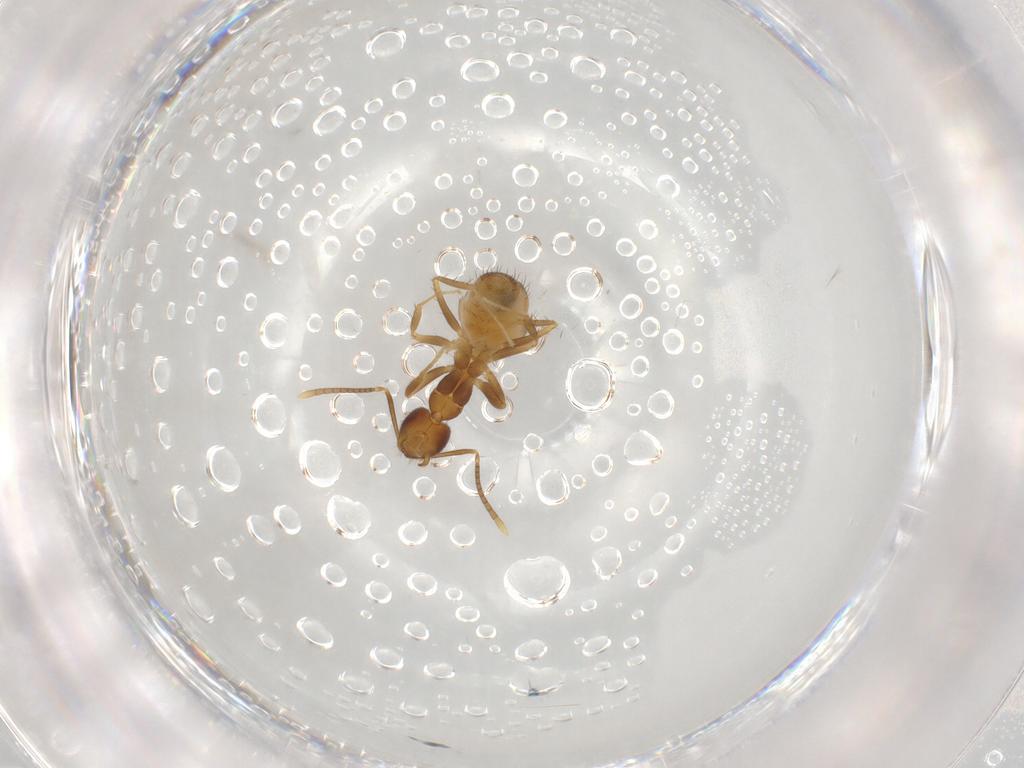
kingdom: Animalia
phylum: Arthropoda
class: Insecta
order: Hymenoptera
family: Formicidae
